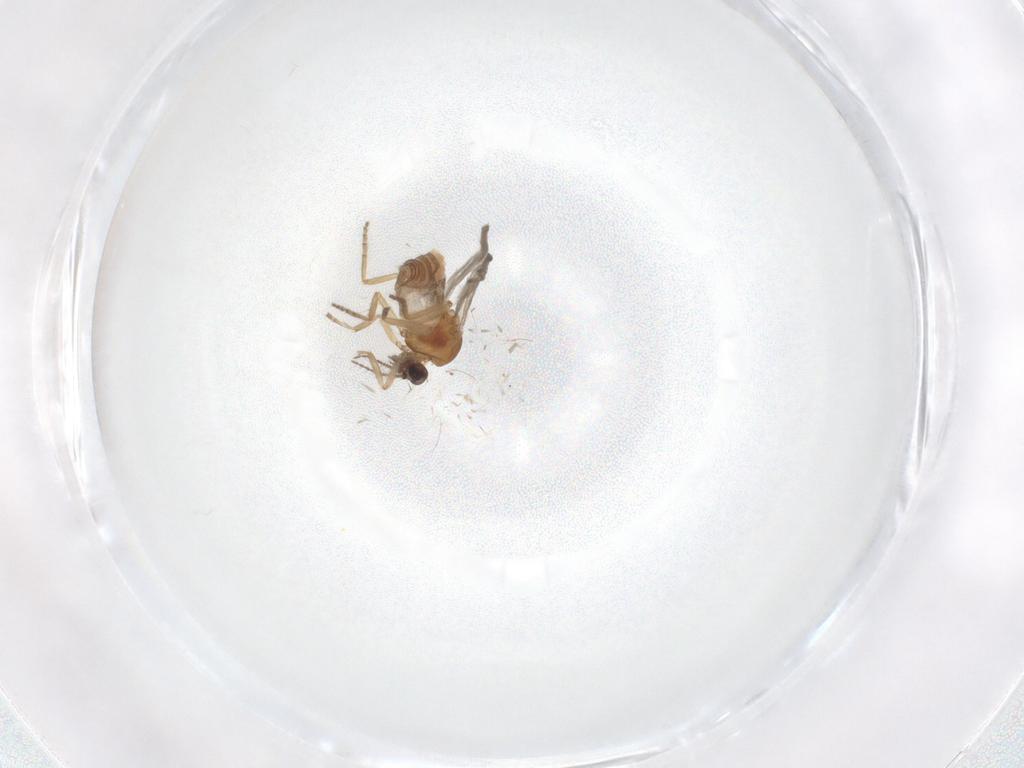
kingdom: Animalia
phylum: Arthropoda
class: Insecta
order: Diptera
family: Ceratopogonidae
